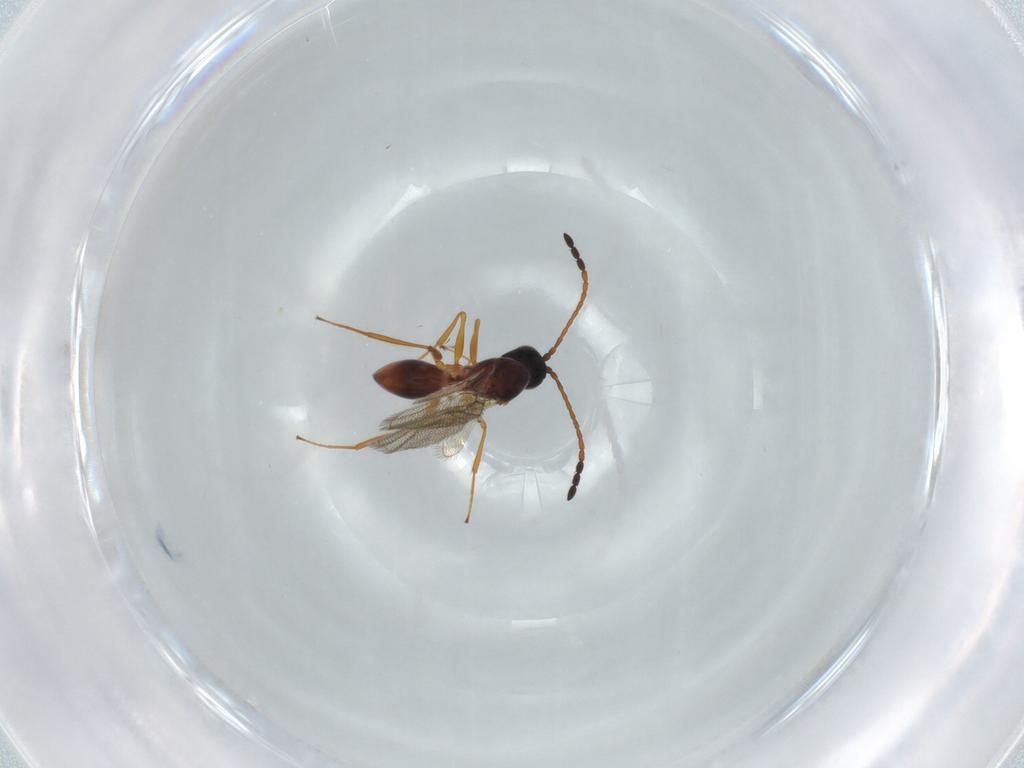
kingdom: Animalia
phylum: Arthropoda
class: Insecta
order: Hymenoptera
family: Figitidae
